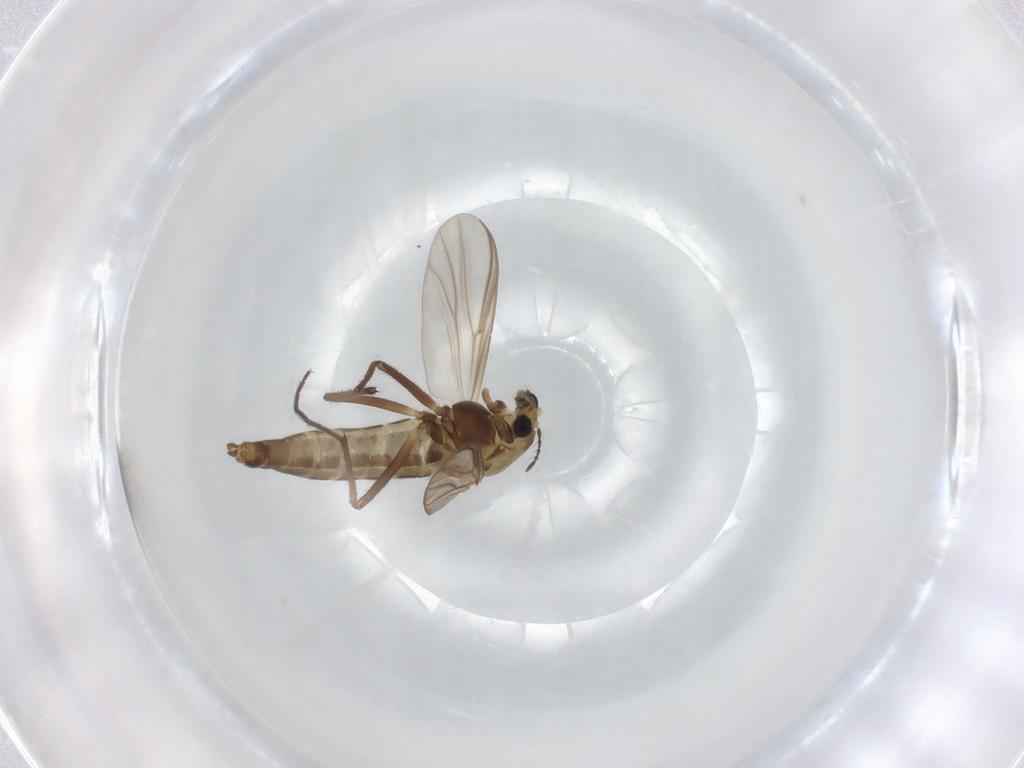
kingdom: Animalia
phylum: Arthropoda
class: Insecta
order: Diptera
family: Chironomidae
